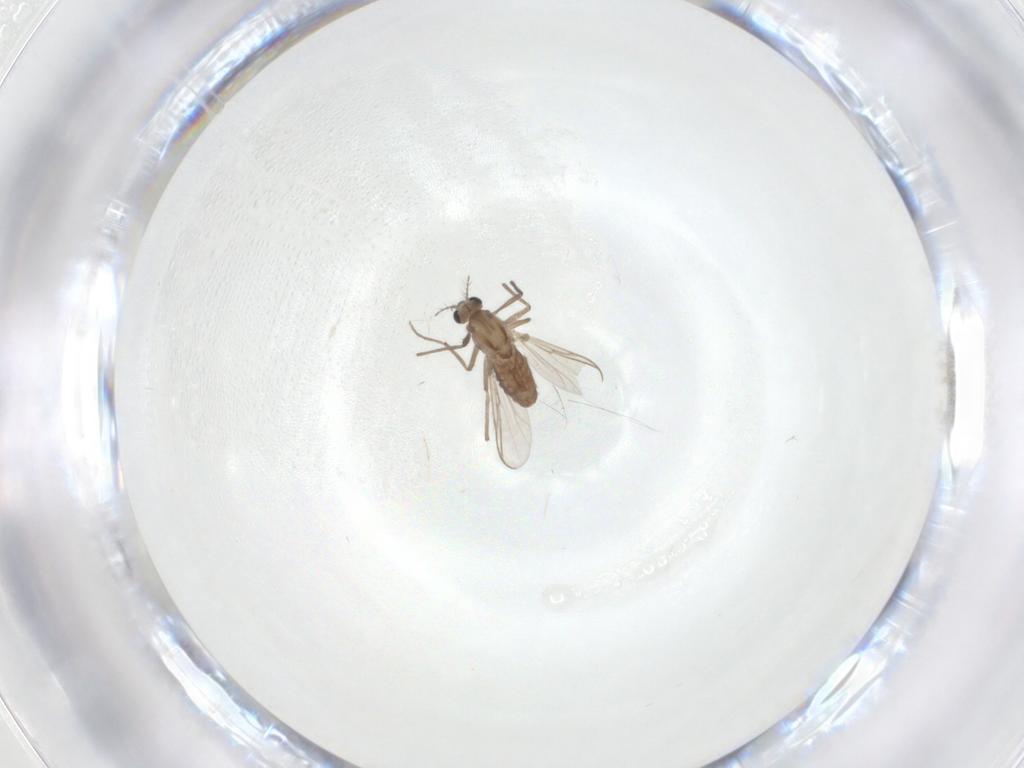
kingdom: Animalia
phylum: Arthropoda
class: Insecta
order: Diptera
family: Chironomidae
